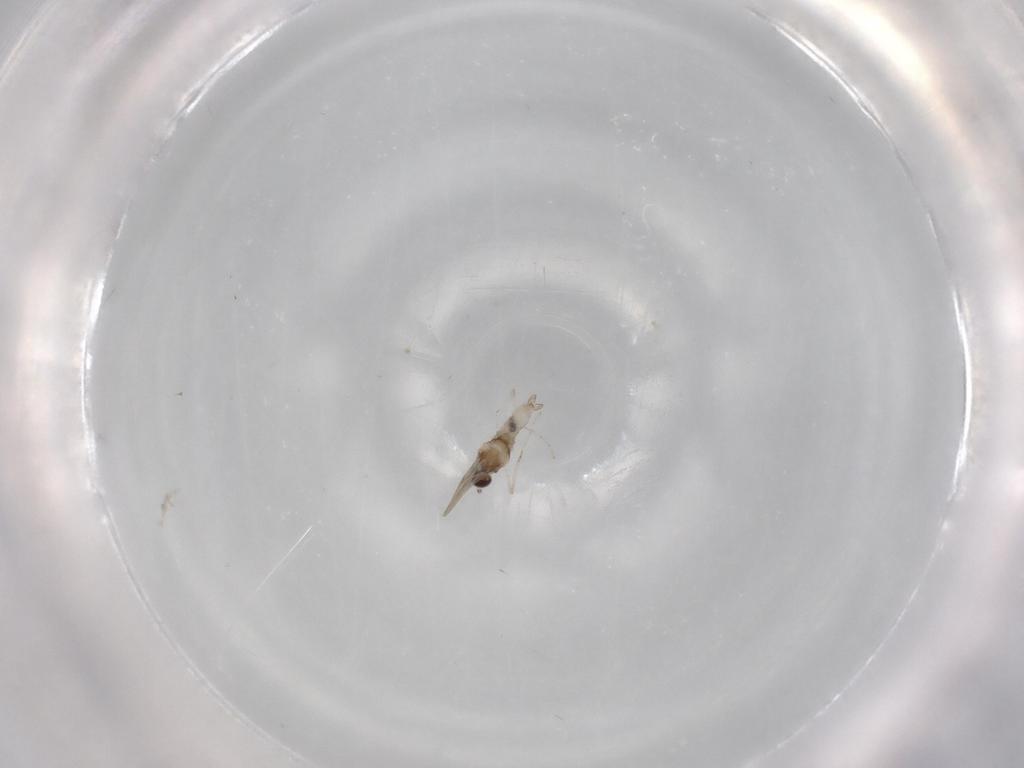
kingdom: Animalia
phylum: Arthropoda
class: Insecta
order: Diptera
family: Cecidomyiidae
